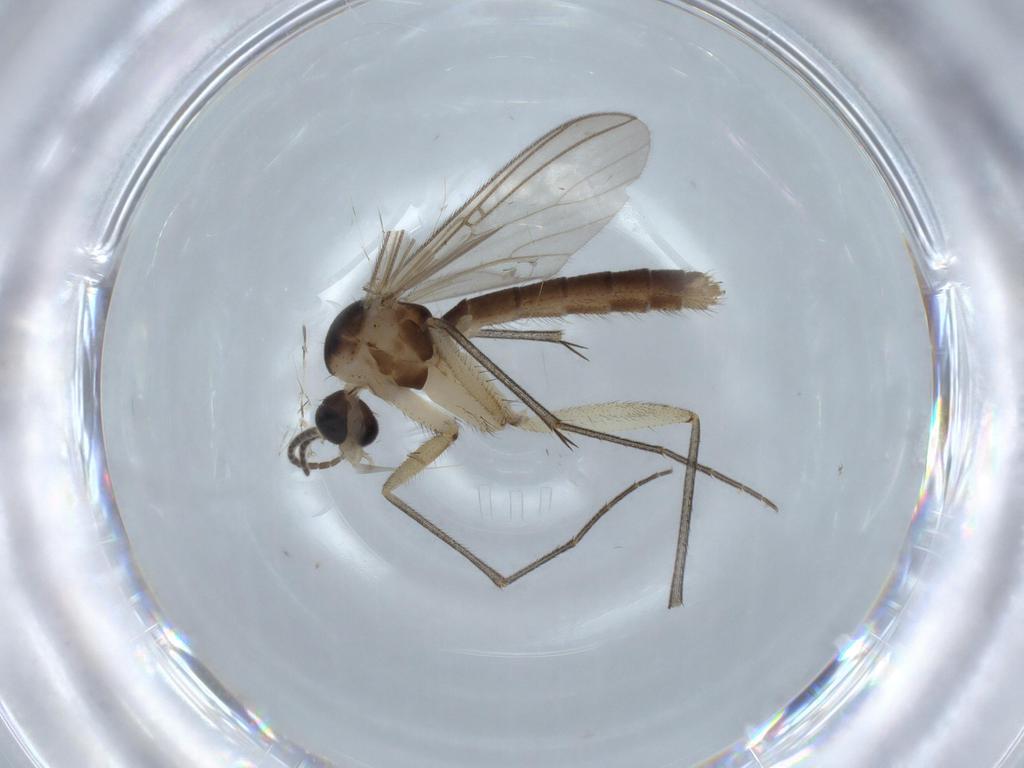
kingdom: Animalia
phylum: Arthropoda
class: Insecta
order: Diptera
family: Mycetophilidae
